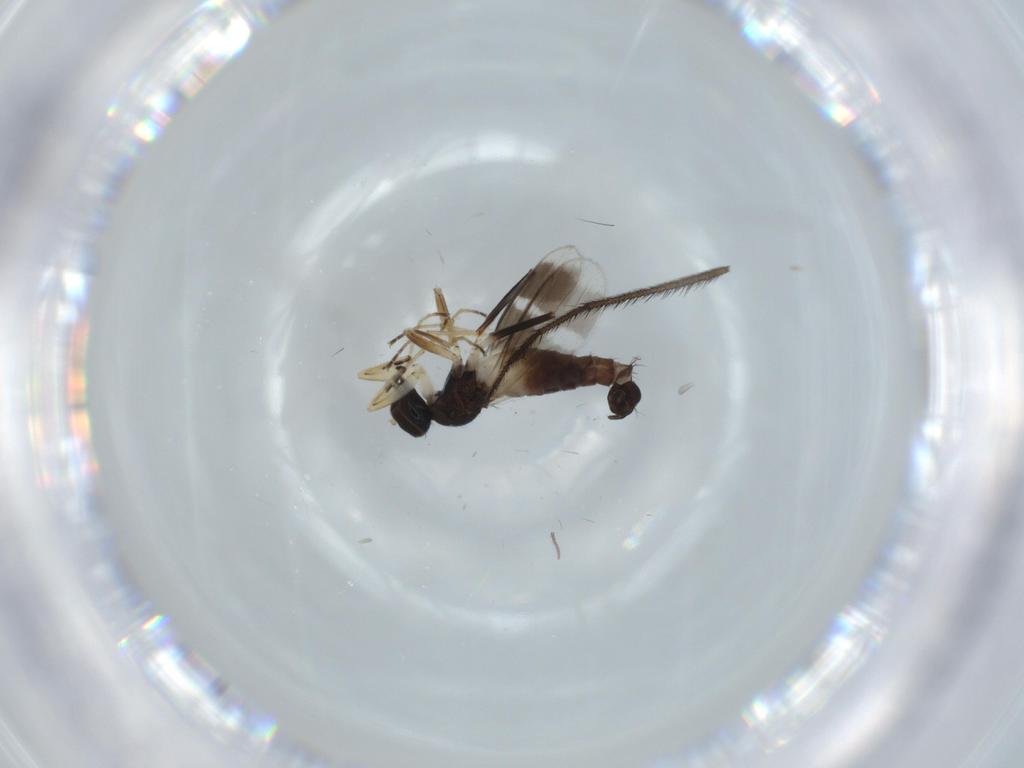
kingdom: Animalia
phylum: Arthropoda
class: Insecta
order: Diptera
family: Hybotidae
